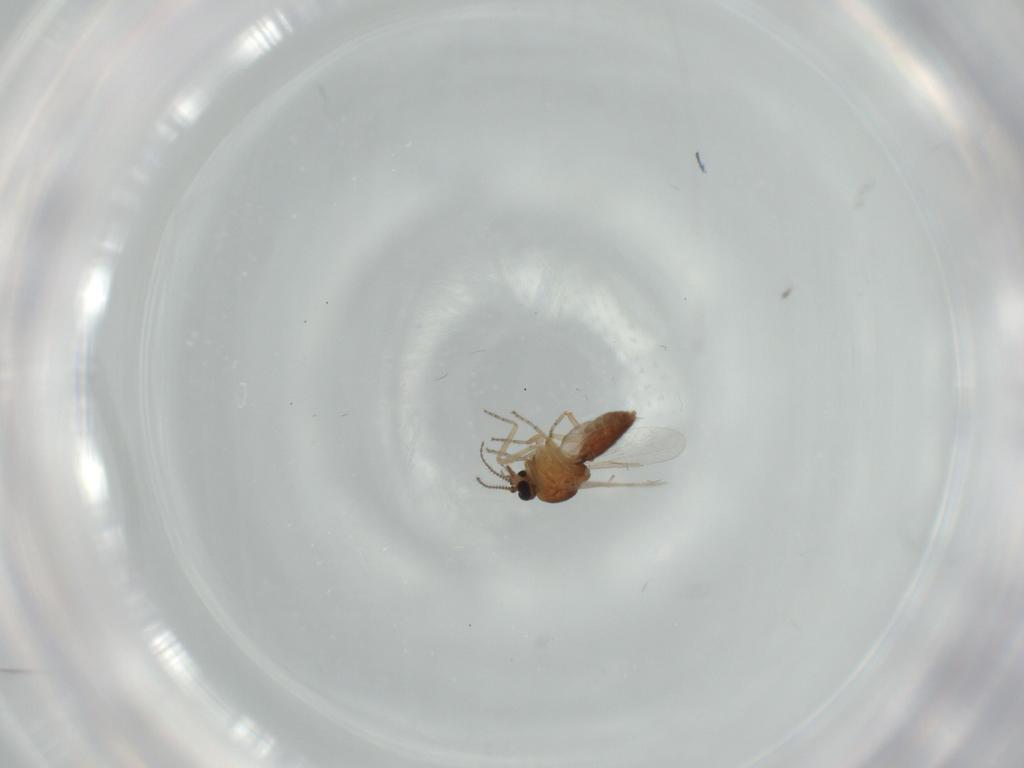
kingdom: Animalia
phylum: Arthropoda
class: Insecta
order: Diptera
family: Ceratopogonidae
